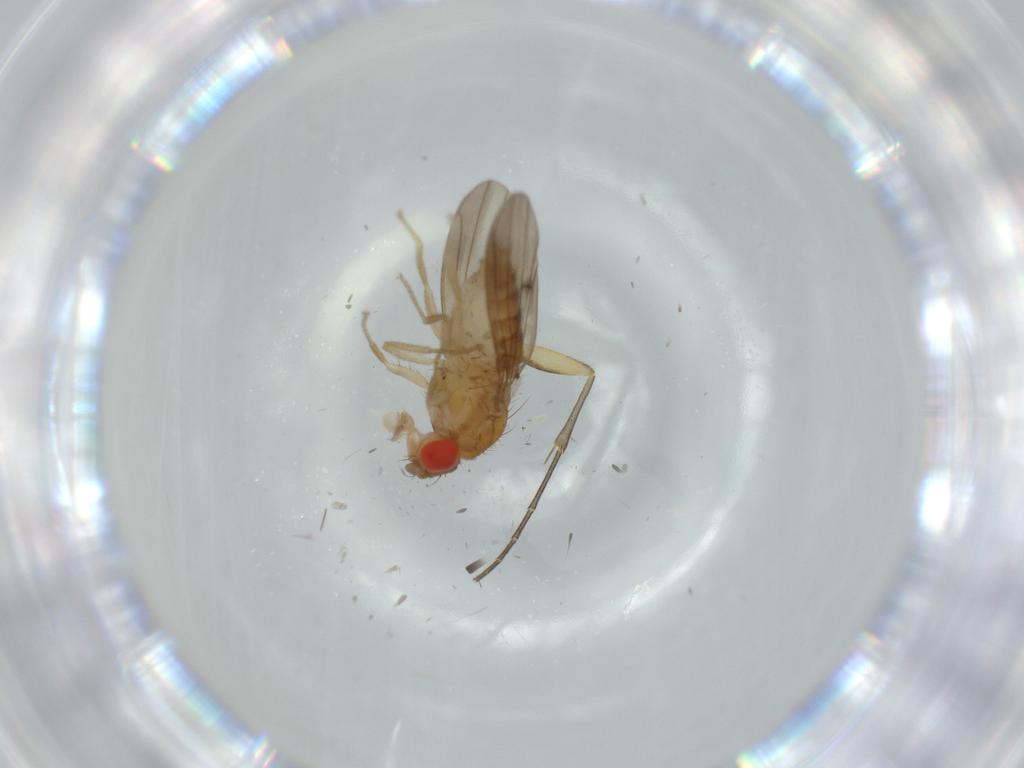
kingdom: Animalia
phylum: Arthropoda
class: Insecta
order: Diptera
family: Drosophilidae
